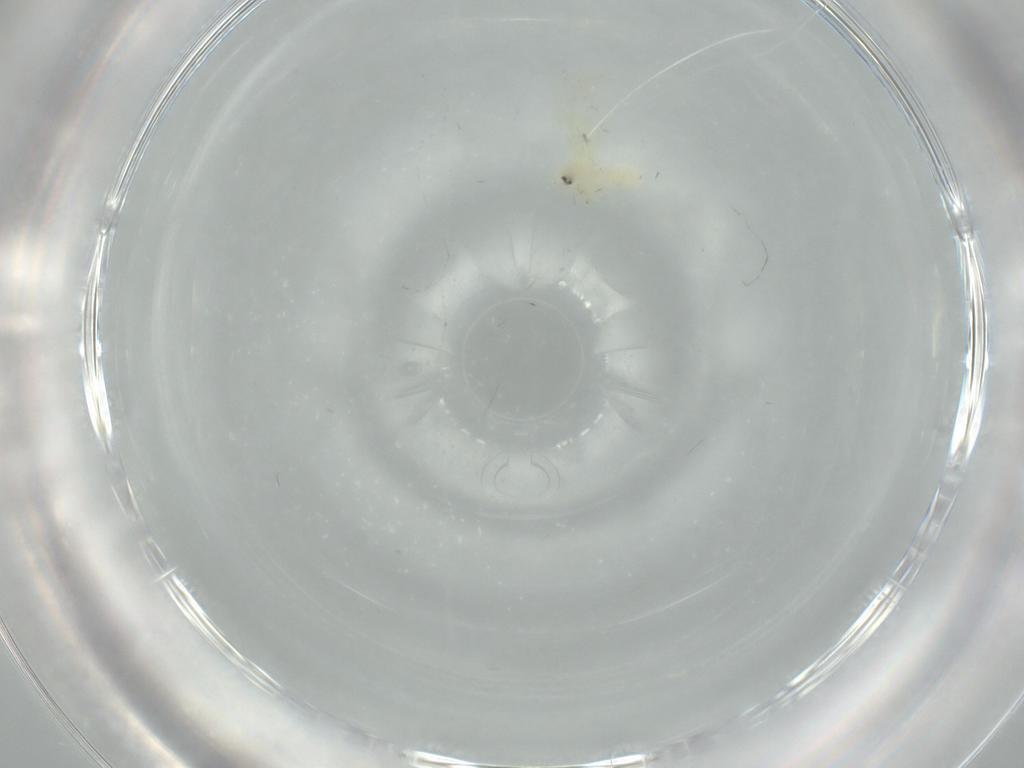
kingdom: Animalia
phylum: Arthropoda
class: Insecta
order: Hemiptera
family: Aleyrodidae
